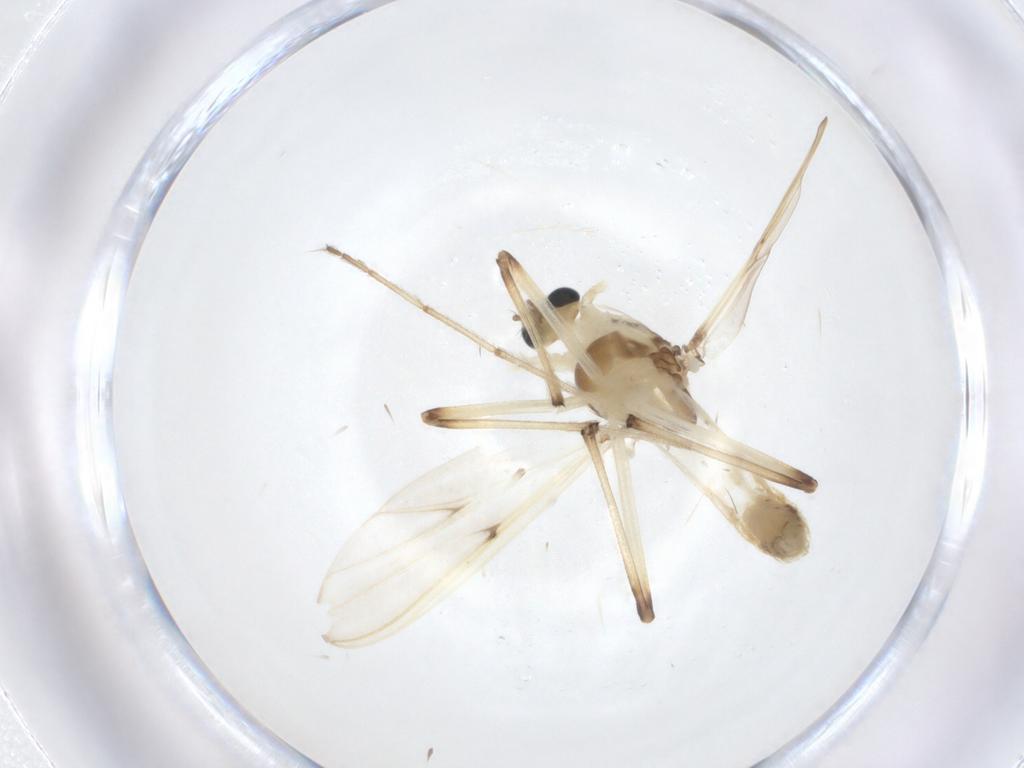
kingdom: Animalia
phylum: Arthropoda
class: Insecta
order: Diptera
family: Chironomidae
